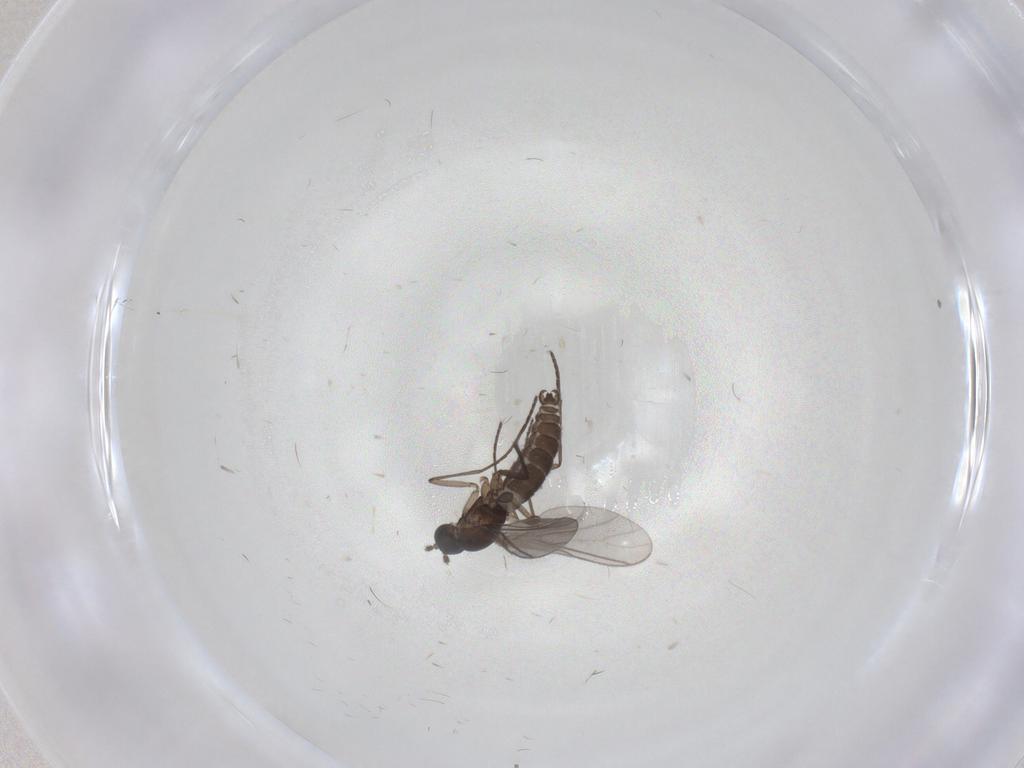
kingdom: Animalia
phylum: Arthropoda
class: Insecta
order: Diptera
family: Sciaridae
